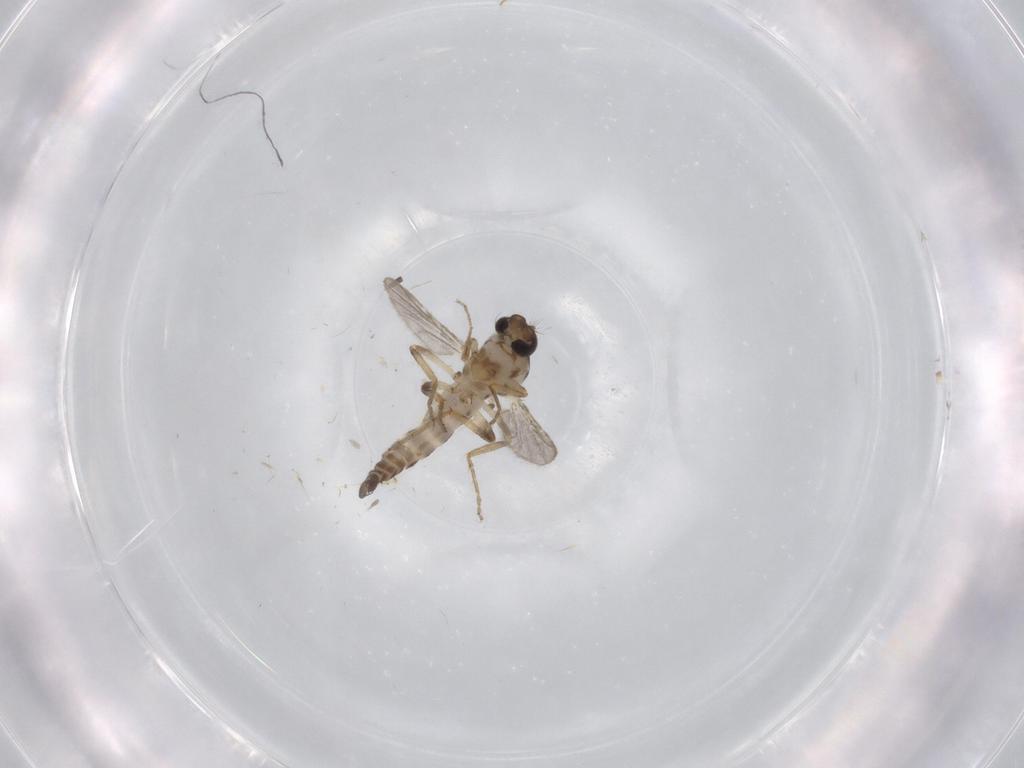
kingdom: Animalia
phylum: Arthropoda
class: Insecta
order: Diptera
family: Ceratopogonidae
